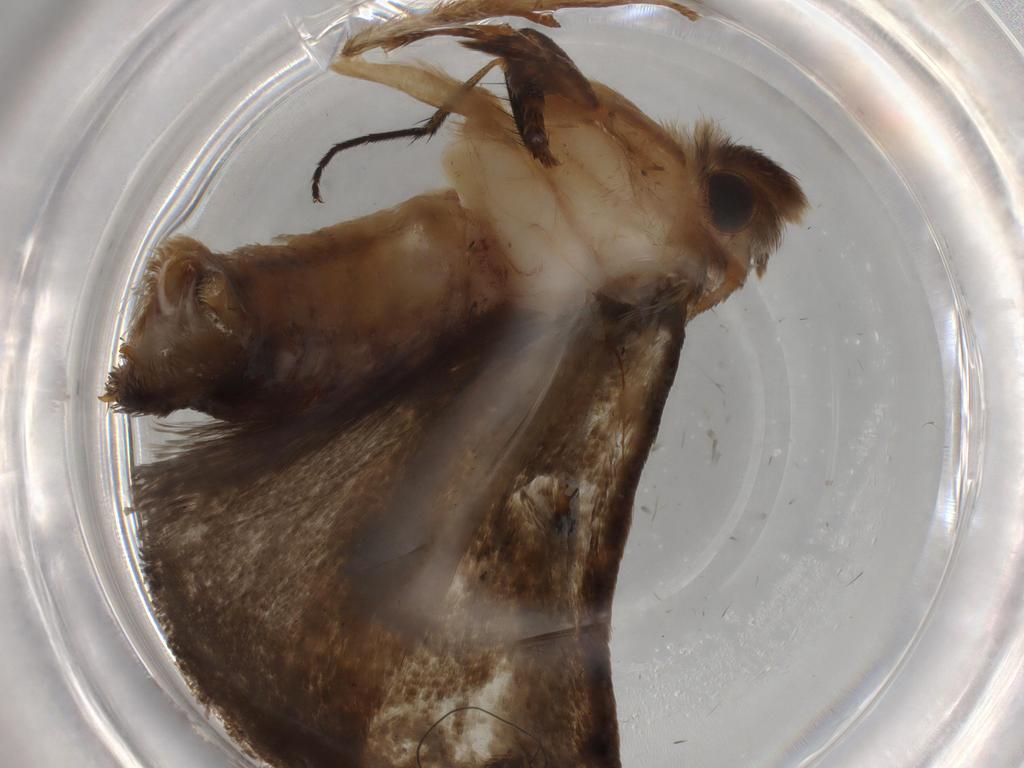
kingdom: Animalia
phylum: Arthropoda
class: Insecta
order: Lepidoptera
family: Tineidae
